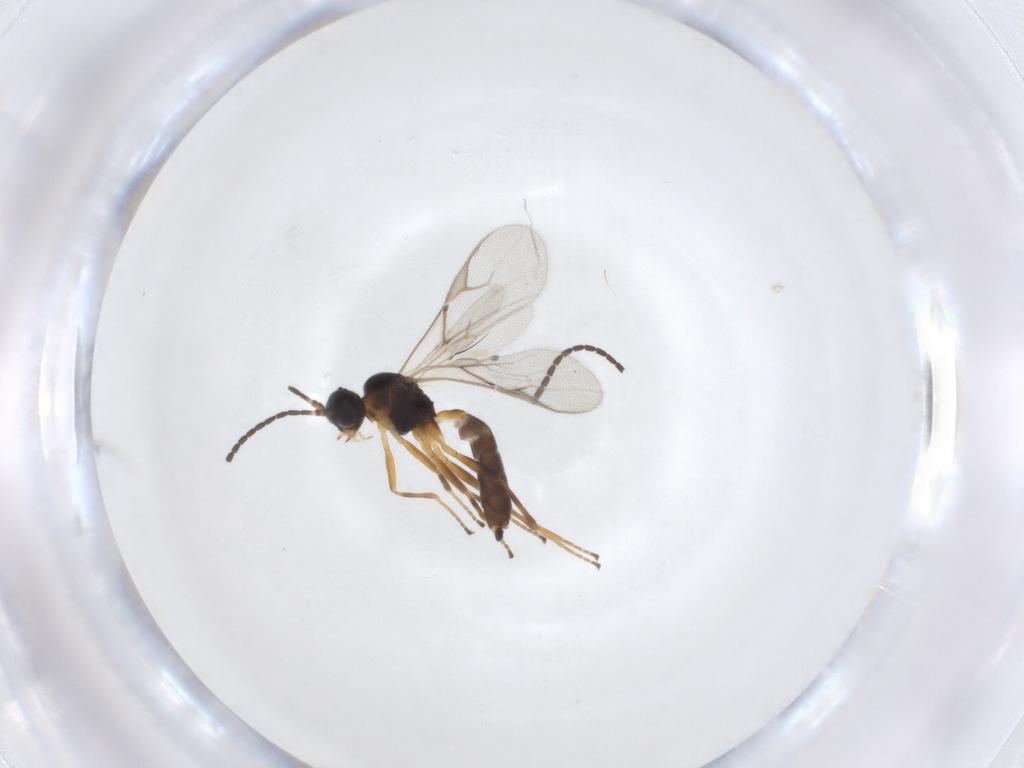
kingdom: Animalia
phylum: Arthropoda
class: Insecta
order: Hymenoptera
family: Braconidae
